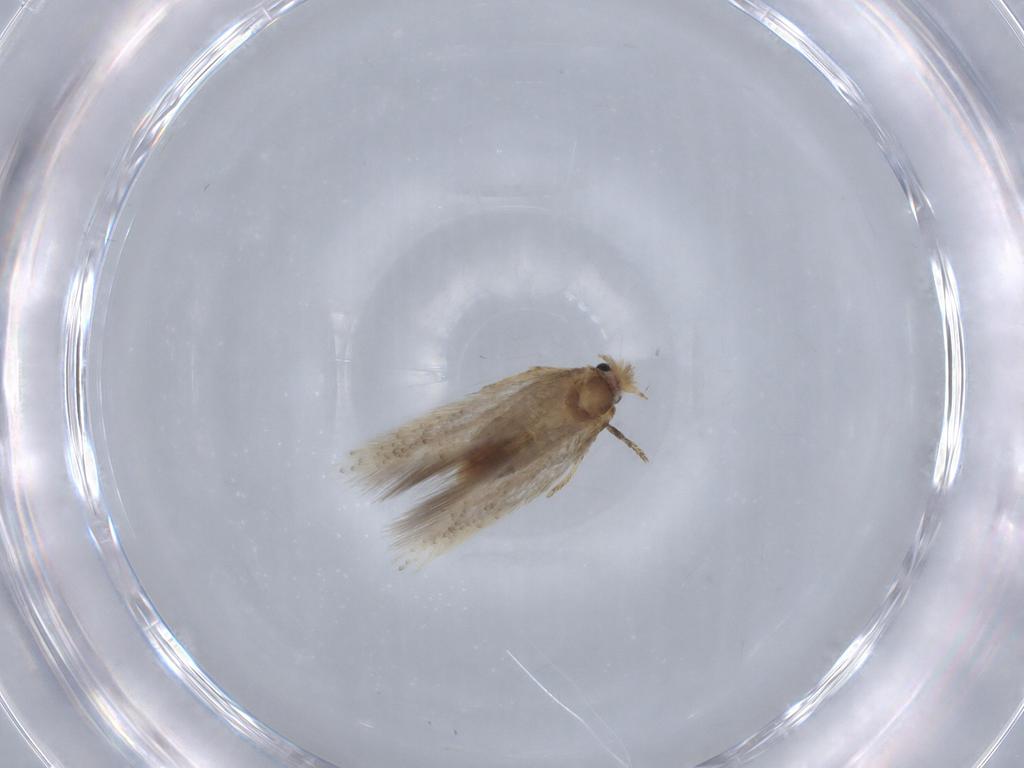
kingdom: Animalia
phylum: Arthropoda
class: Insecta
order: Lepidoptera
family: Nepticulidae
